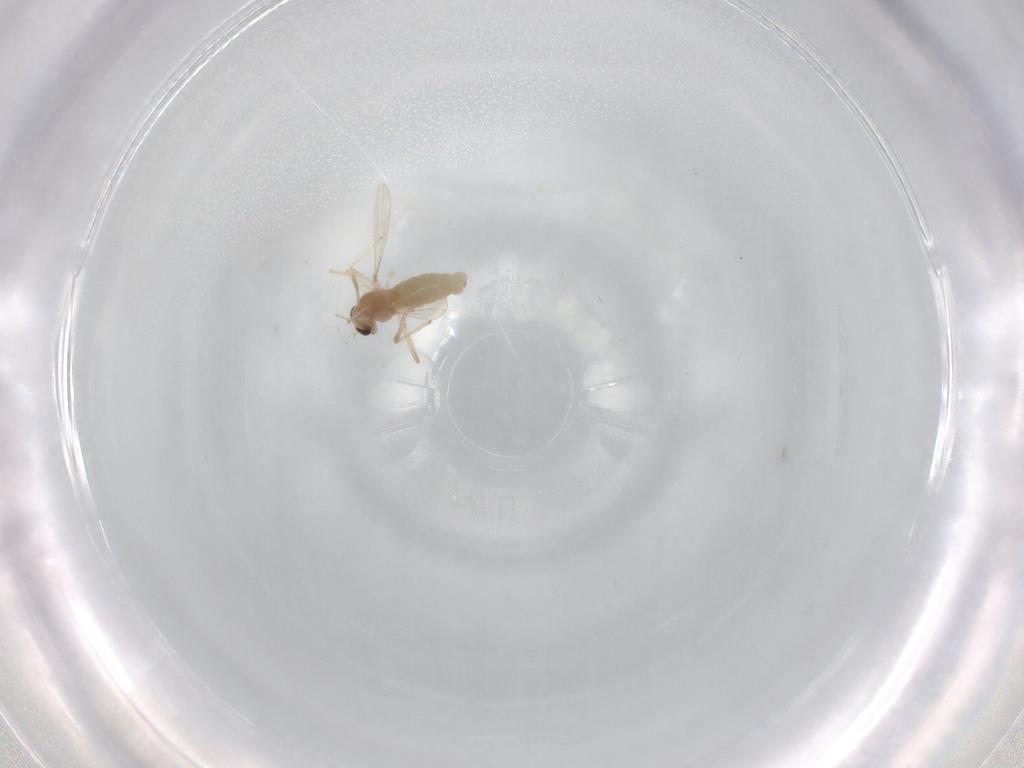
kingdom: Animalia
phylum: Arthropoda
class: Insecta
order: Diptera
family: Chironomidae
